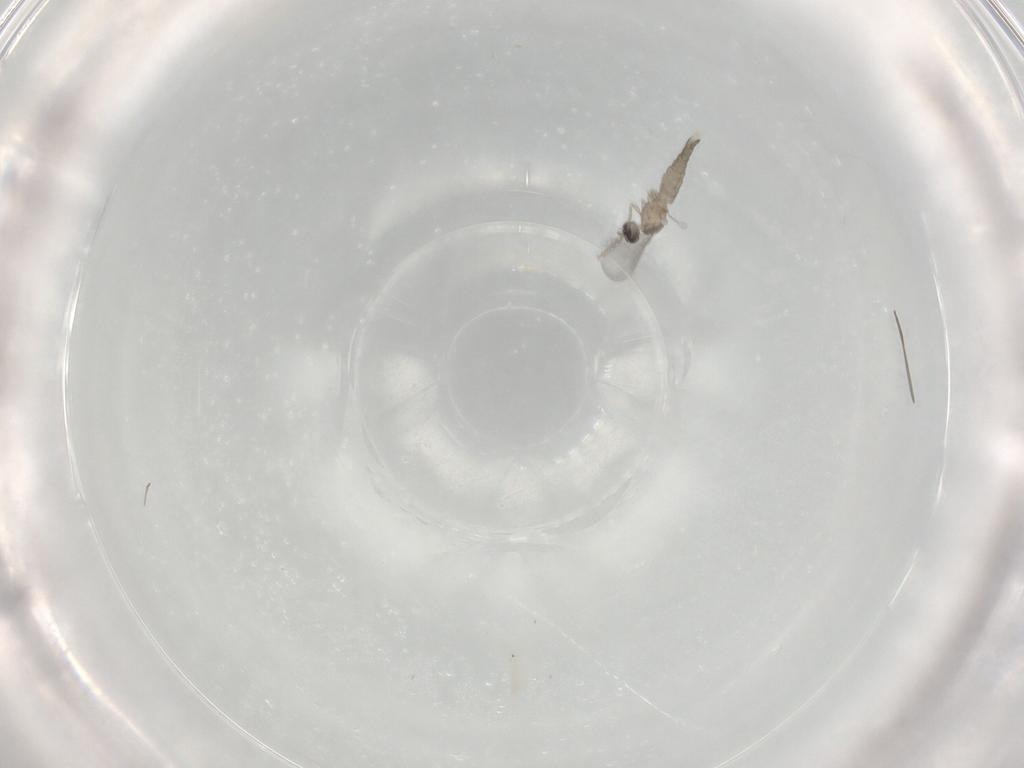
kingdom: Animalia
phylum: Arthropoda
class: Insecta
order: Diptera
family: Cecidomyiidae
